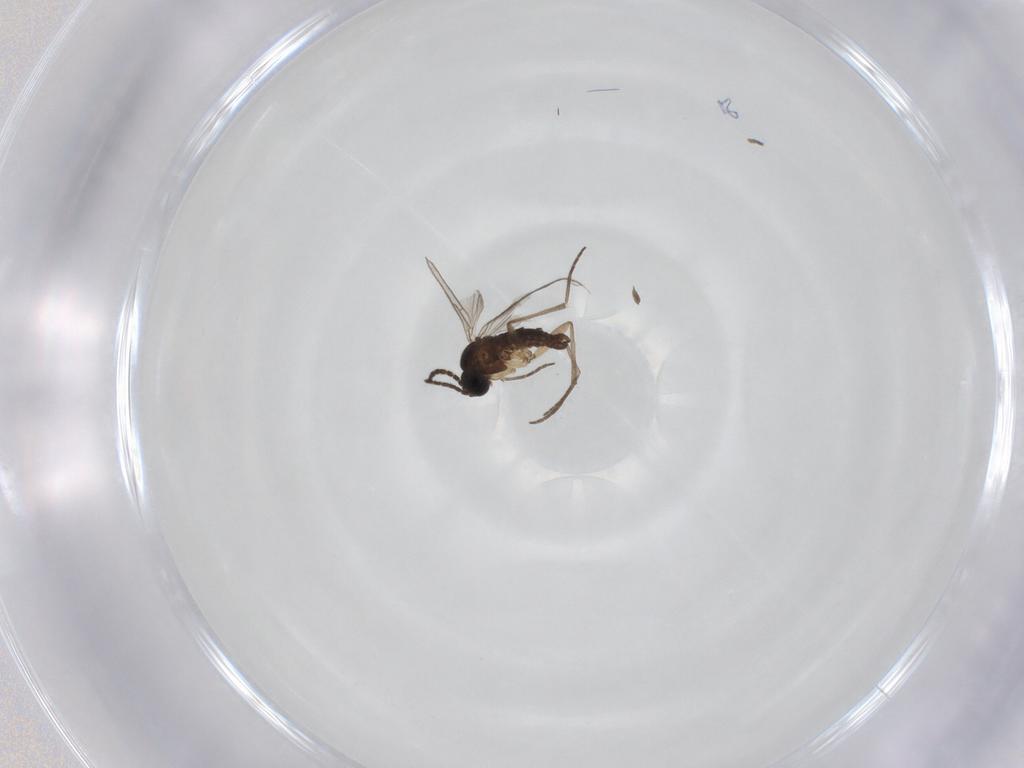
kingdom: Animalia
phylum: Arthropoda
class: Insecta
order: Diptera
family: Sciaridae
